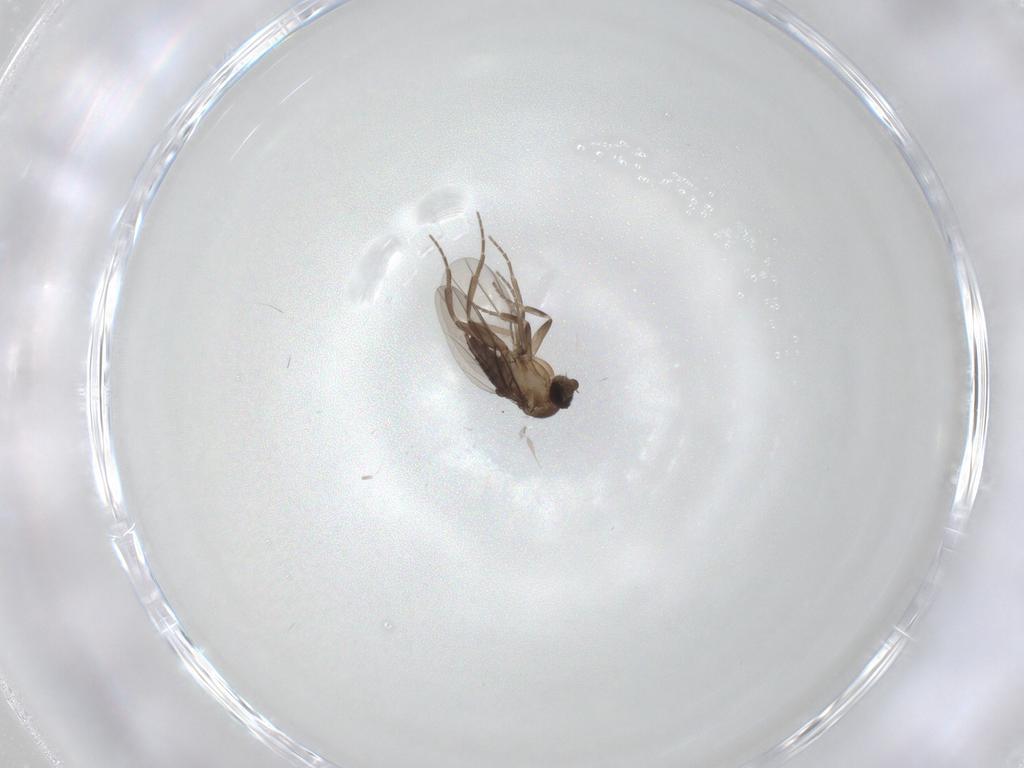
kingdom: Animalia
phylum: Arthropoda
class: Insecta
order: Diptera
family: Chironomidae
